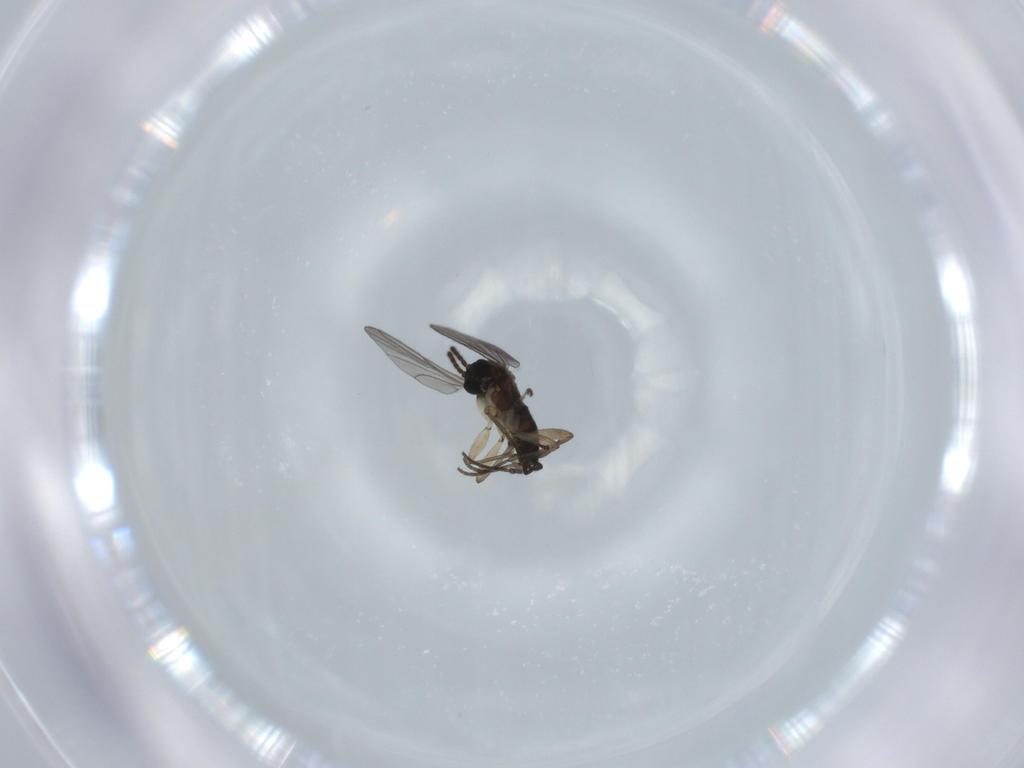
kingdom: Animalia
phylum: Arthropoda
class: Insecta
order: Diptera
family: Sciaridae
